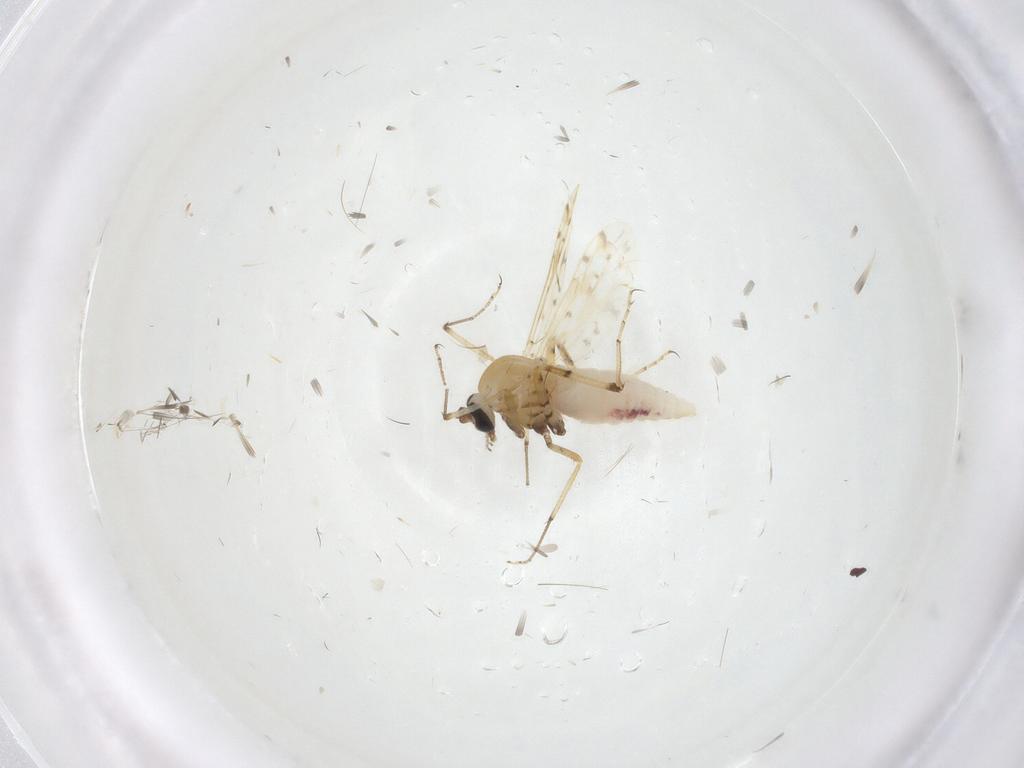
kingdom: Animalia
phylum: Arthropoda
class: Insecta
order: Diptera
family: Ceratopogonidae
